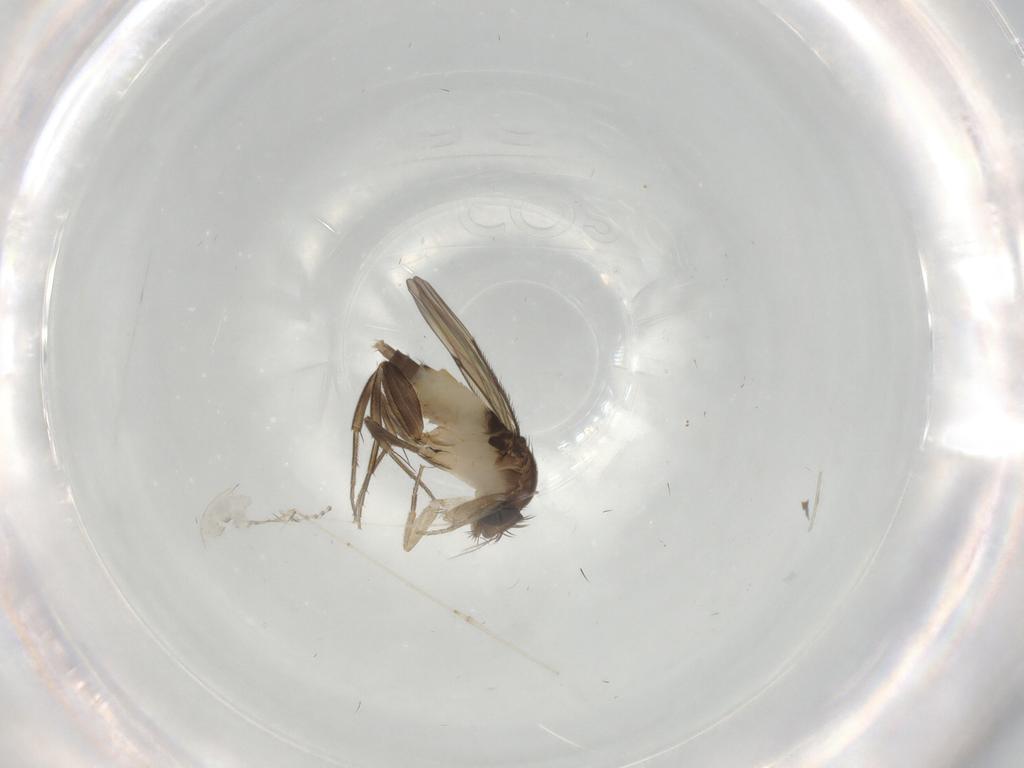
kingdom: Animalia
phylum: Arthropoda
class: Insecta
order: Diptera
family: Phoridae
